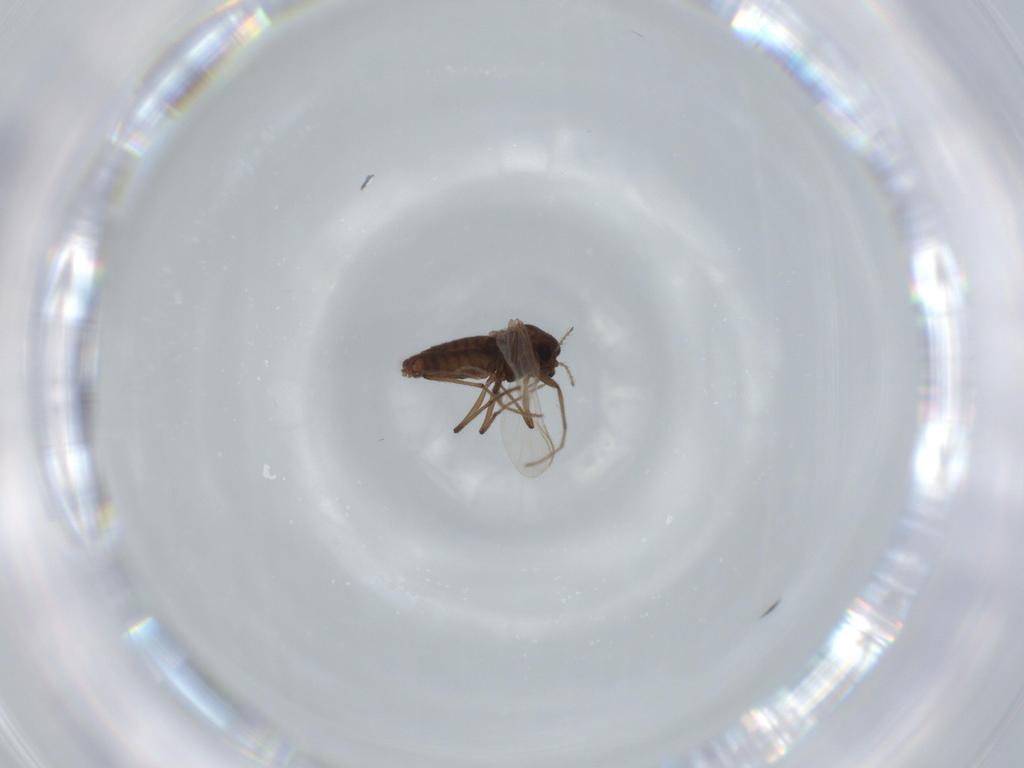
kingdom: Animalia
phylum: Arthropoda
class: Insecta
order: Diptera
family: Chironomidae
